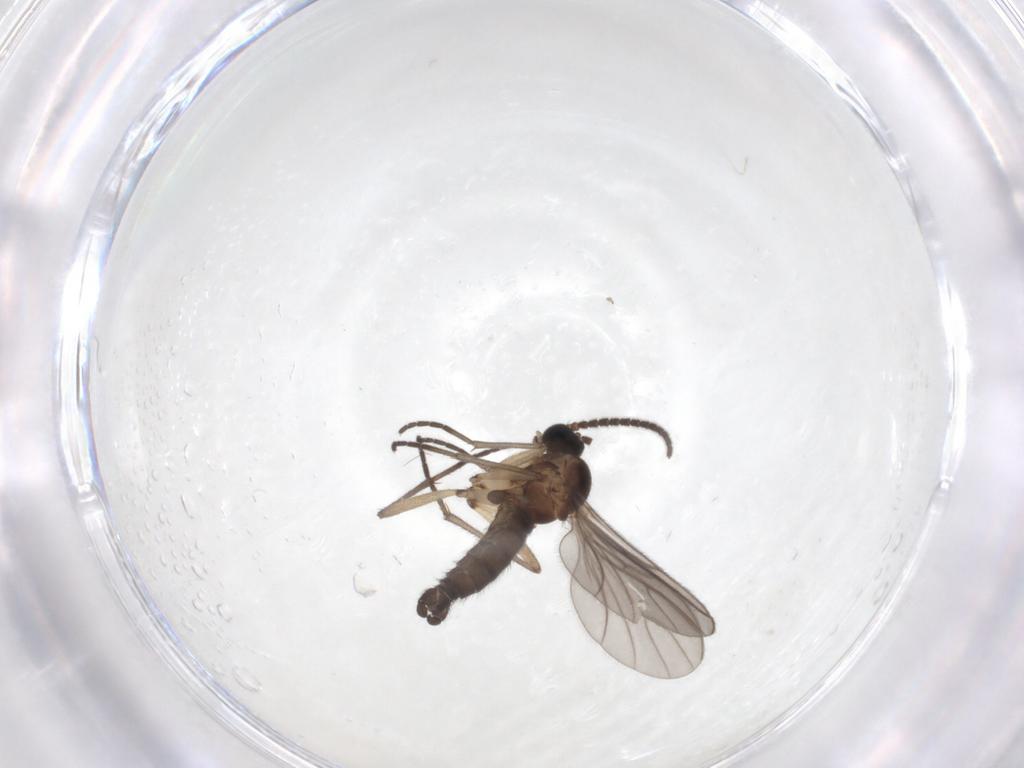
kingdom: Animalia
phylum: Arthropoda
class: Insecta
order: Diptera
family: Sciaridae
